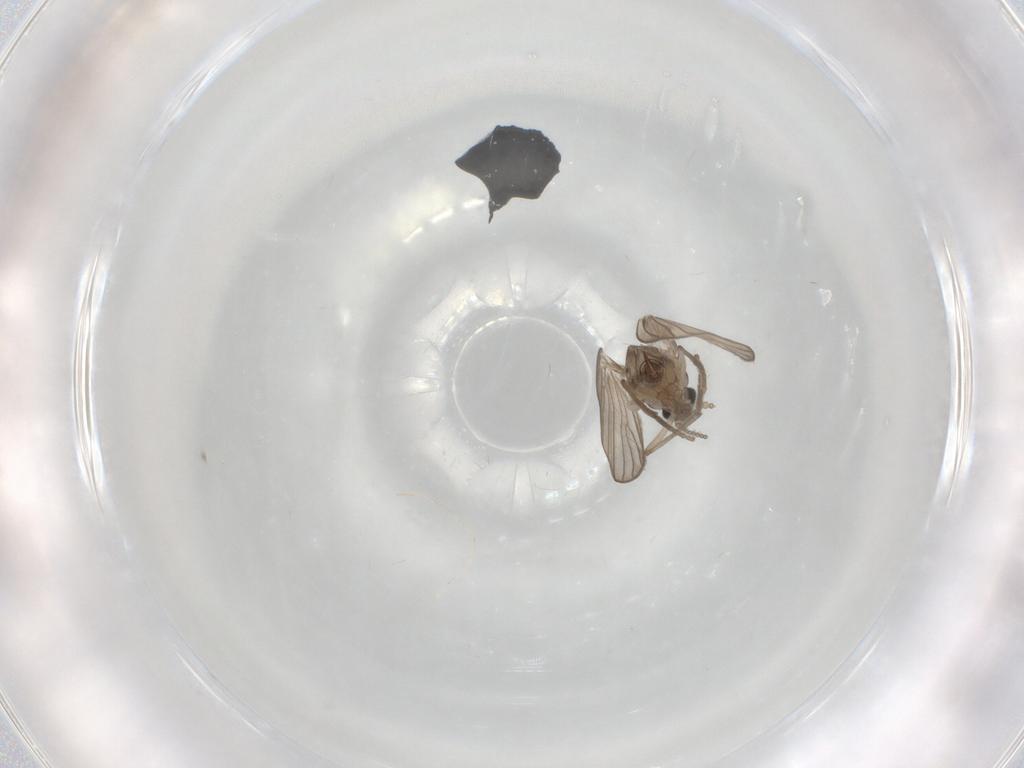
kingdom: Animalia
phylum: Arthropoda
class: Insecta
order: Diptera
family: Psychodidae
